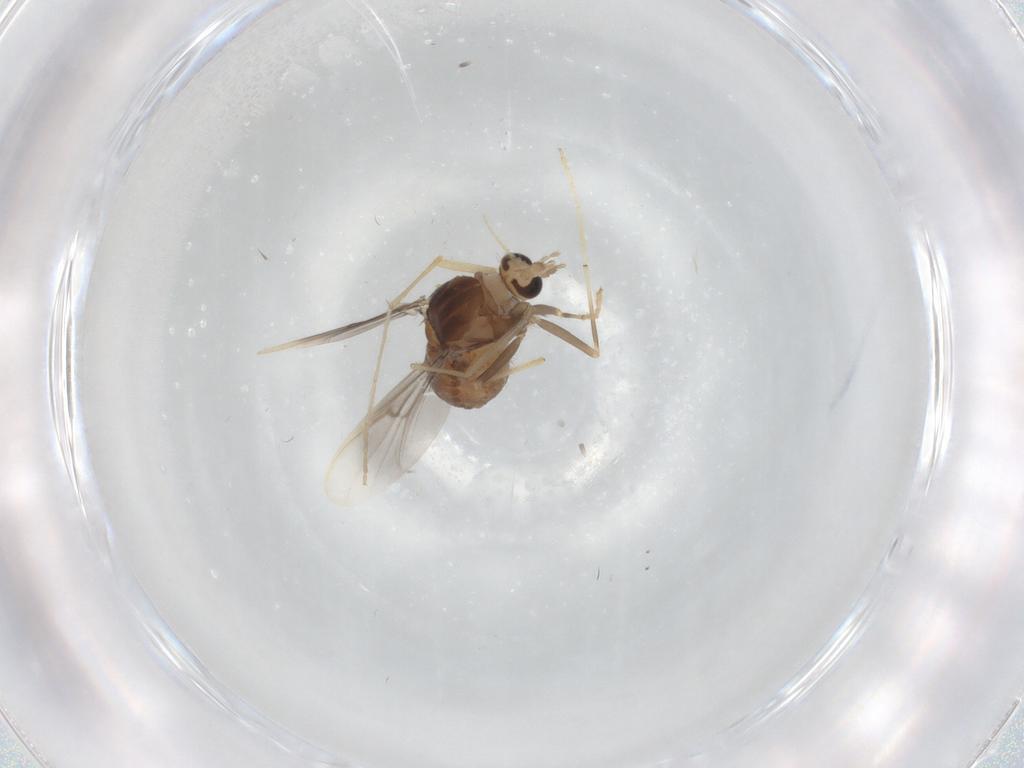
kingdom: Animalia
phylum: Arthropoda
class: Insecta
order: Diptera
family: Chironomidae
